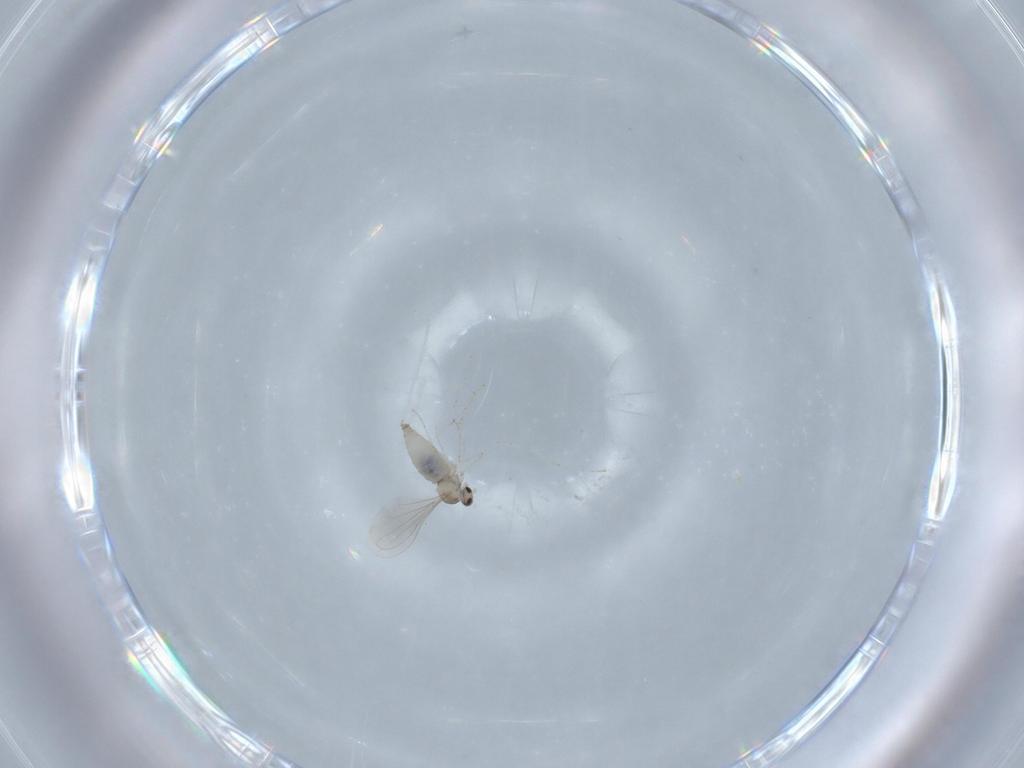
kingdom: Animalia
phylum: Arthropoda
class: Insecta
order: Diptera
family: Cecidomyiidae
